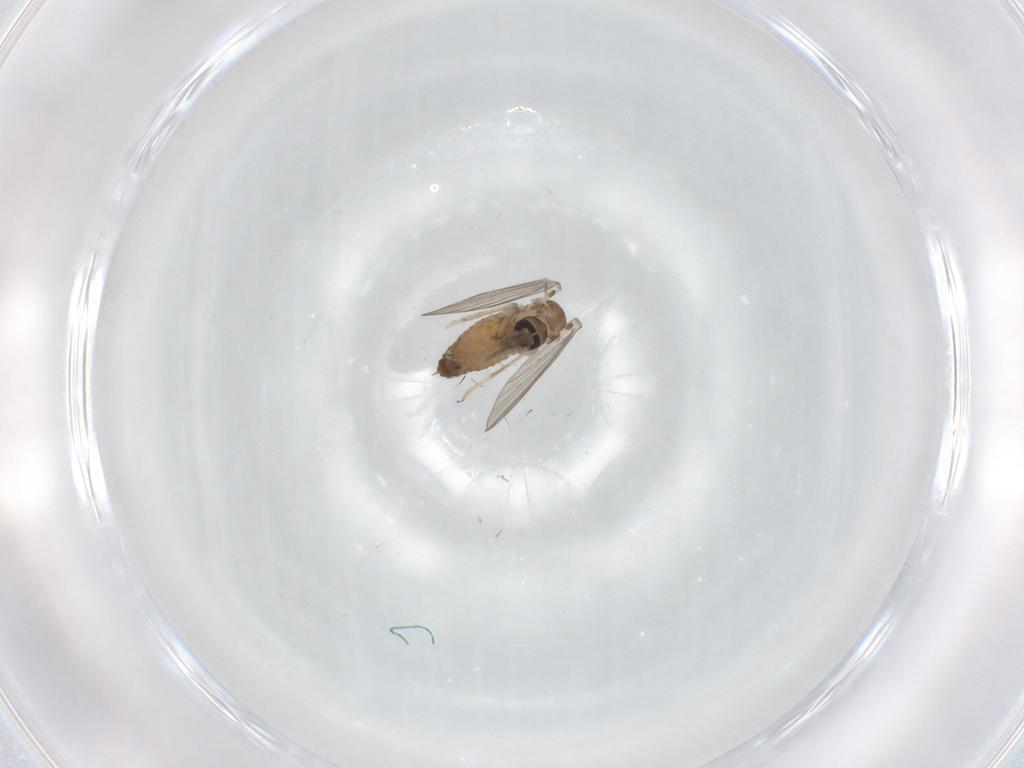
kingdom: Animalia
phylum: Arthropoda
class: Insecta
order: Diptera
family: Psychodidae
